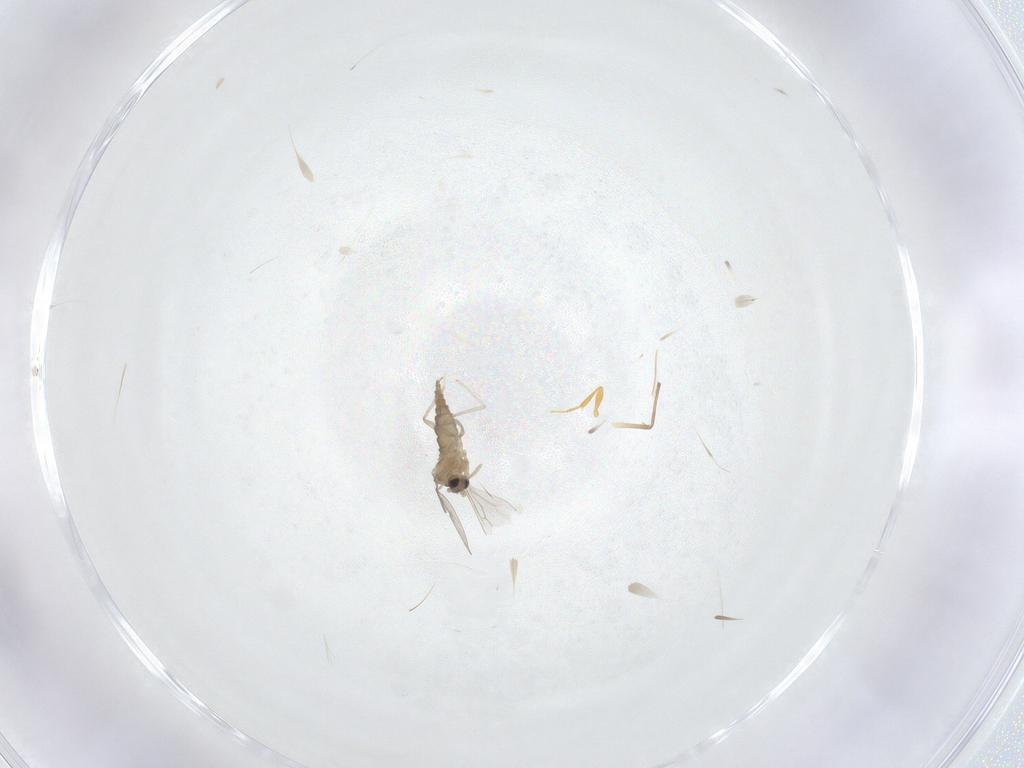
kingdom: Animalia
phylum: Arthropoda
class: Insecta
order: Diptera
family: Cecidomyiidae
